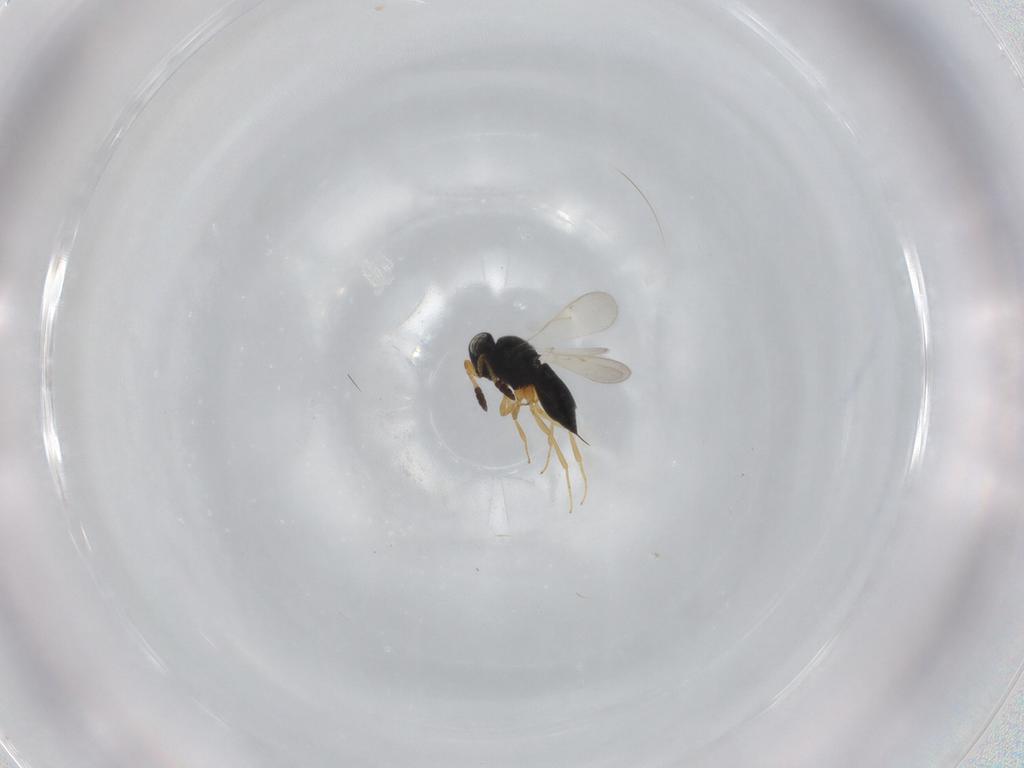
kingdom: Animalia
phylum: Arthropoda
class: Insecta
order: Hymenoptera
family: Scelionidae
